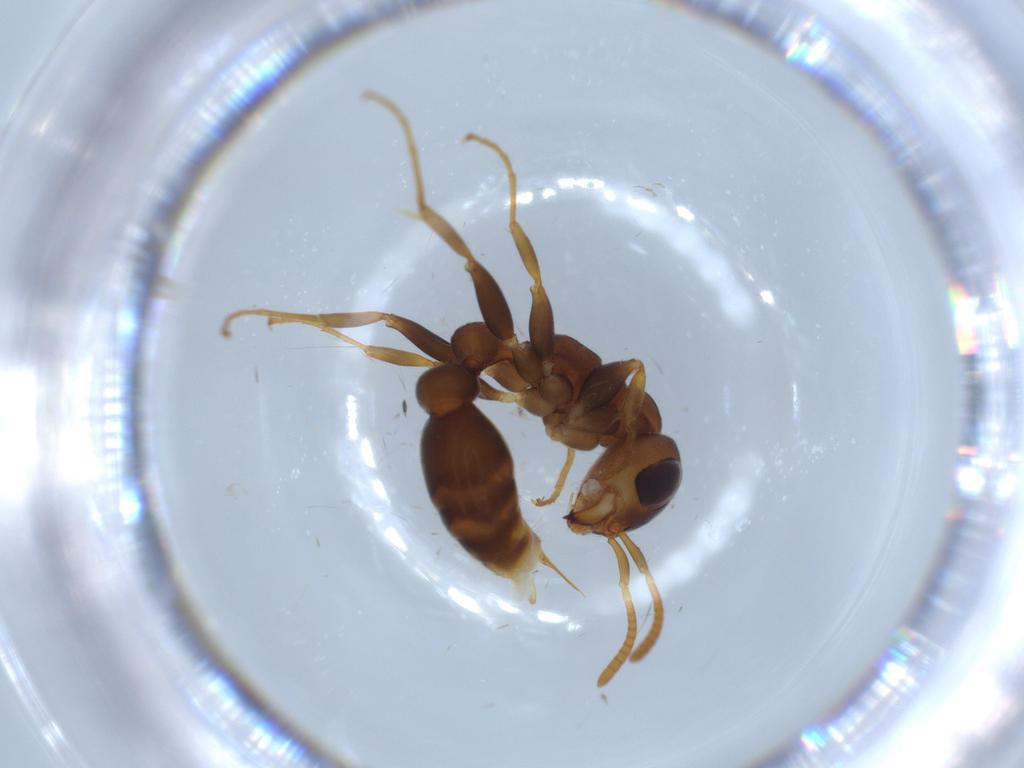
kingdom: Animalia
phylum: Arthropoda
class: Insecta
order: Hymenoptera
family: Formicidae
